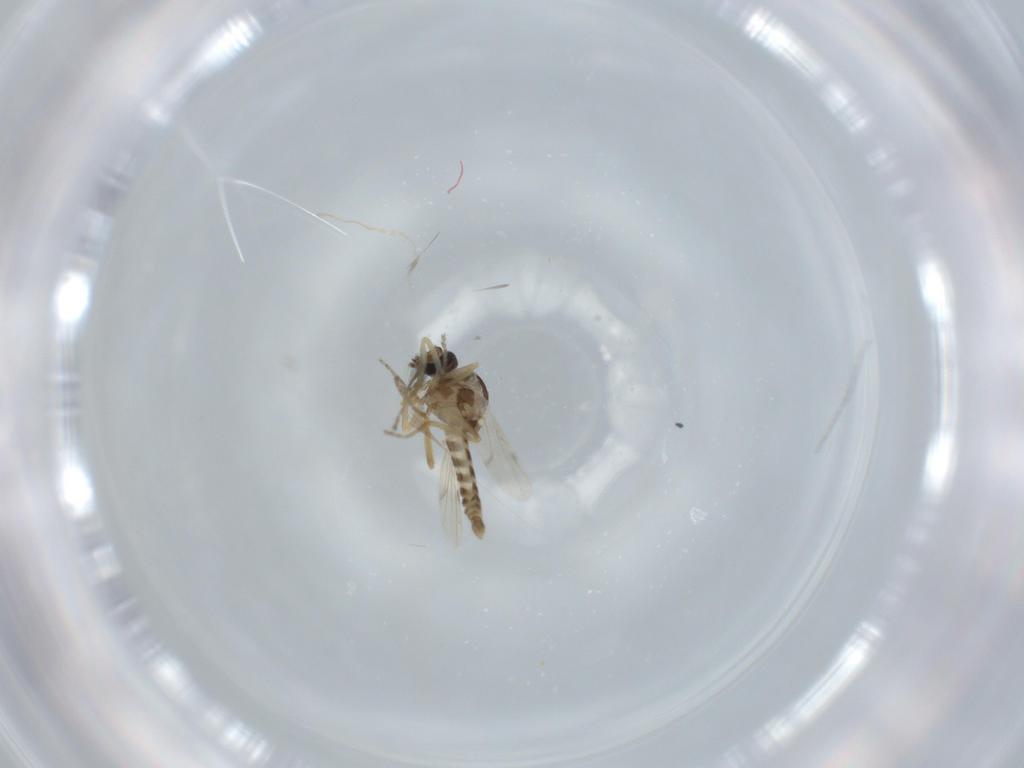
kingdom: Animalia
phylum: Arthropoda
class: Insecta
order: Diptera
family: Ceratopogonidae
